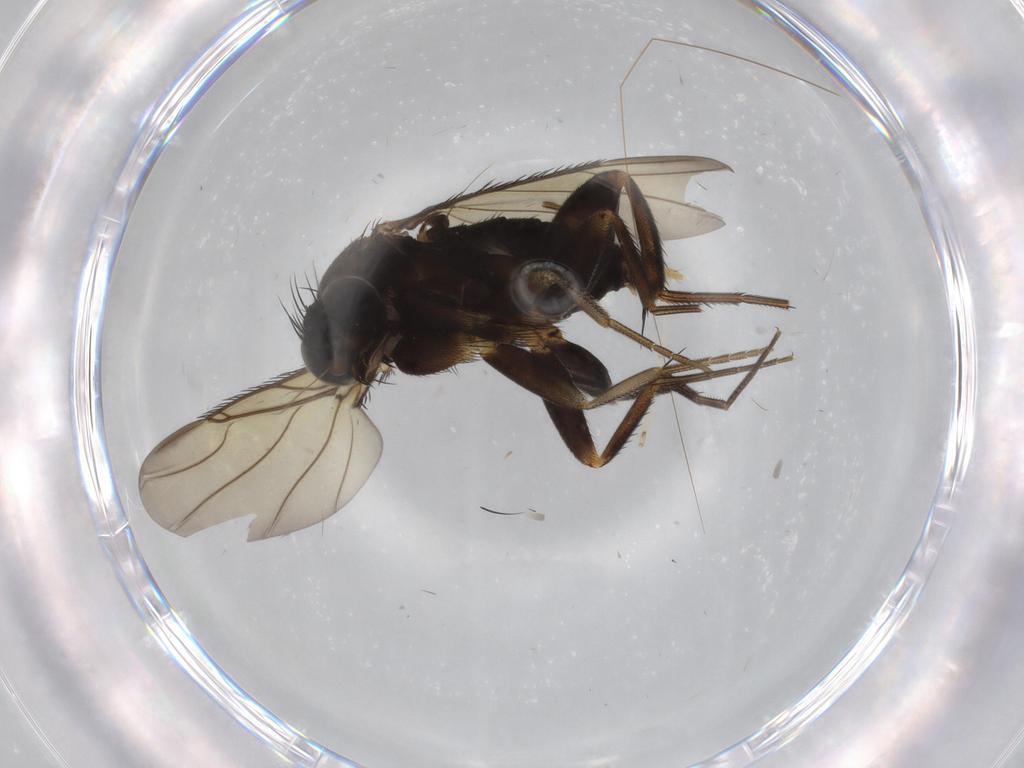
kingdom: Animalia
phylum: Arthropoda
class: Insecta
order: Diptera
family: Phoridae
